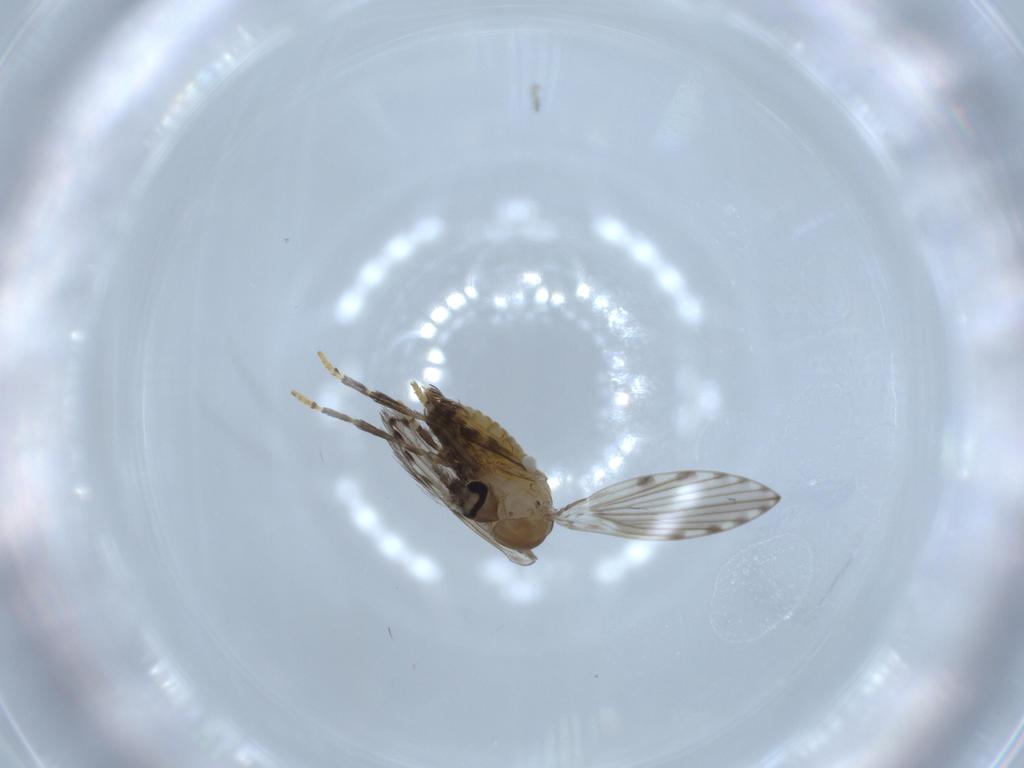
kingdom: Animalia
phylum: Arthropoda
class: Insecta
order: Diptera
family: Psychodidae
